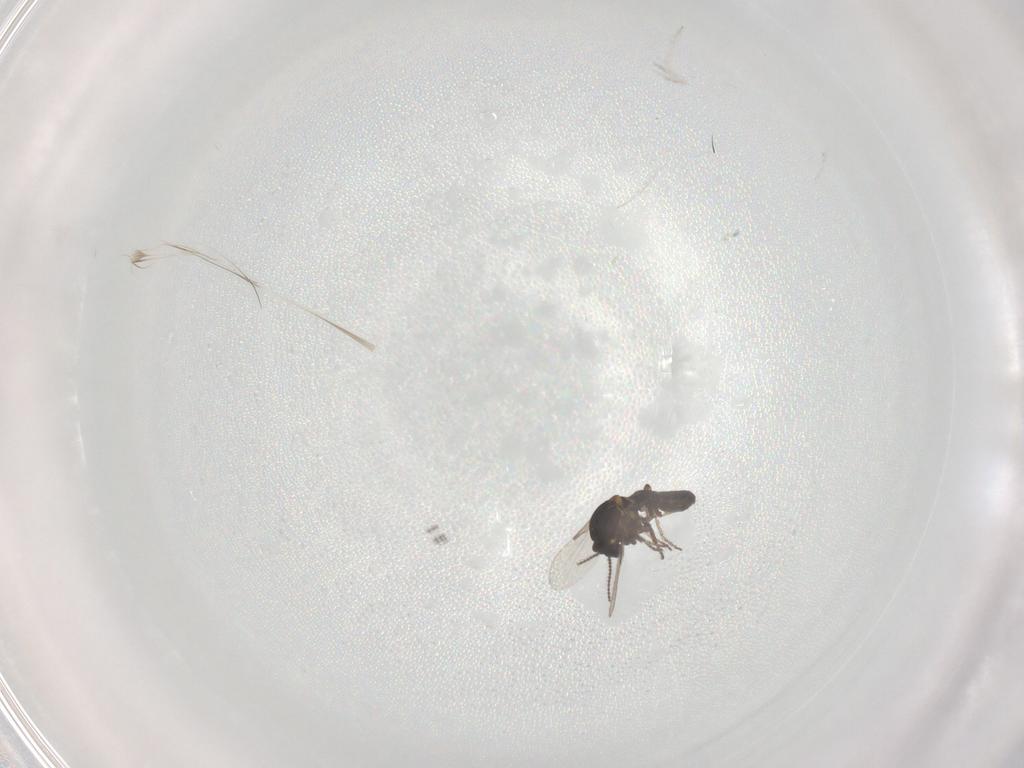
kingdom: Animalia
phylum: Arthropoda
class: Insecta
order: Diptera
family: Ceratopogonidae
